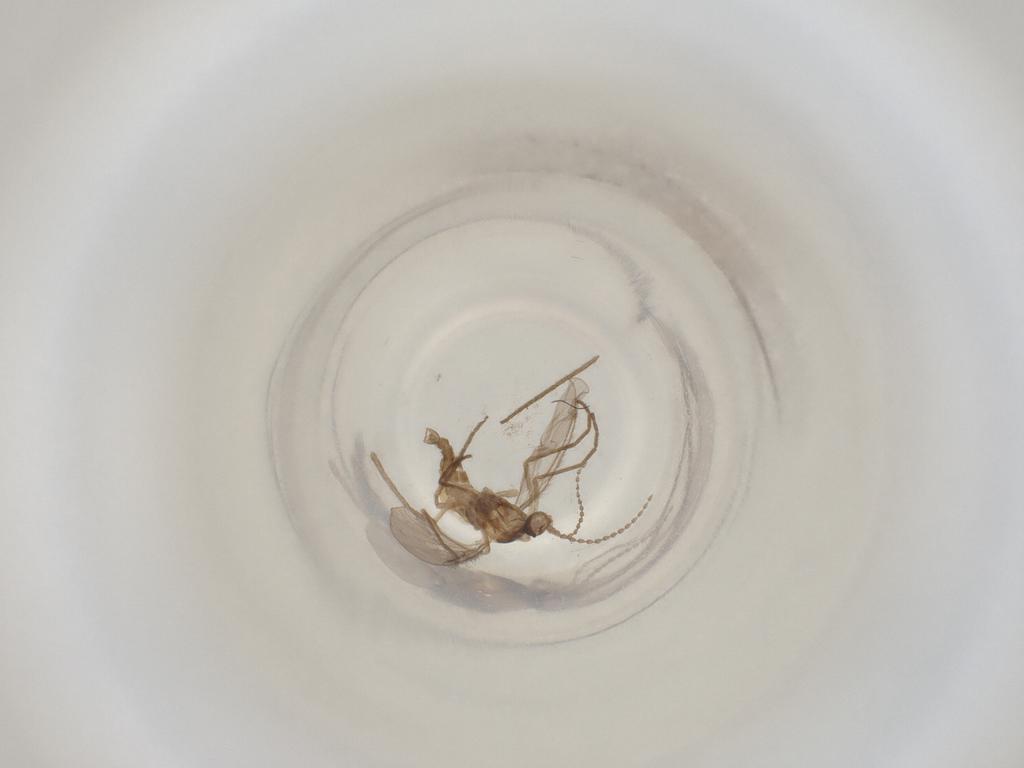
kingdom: Animalia
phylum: Arthropoda
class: Insecta
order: Diptera
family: Cecidomyiidae
